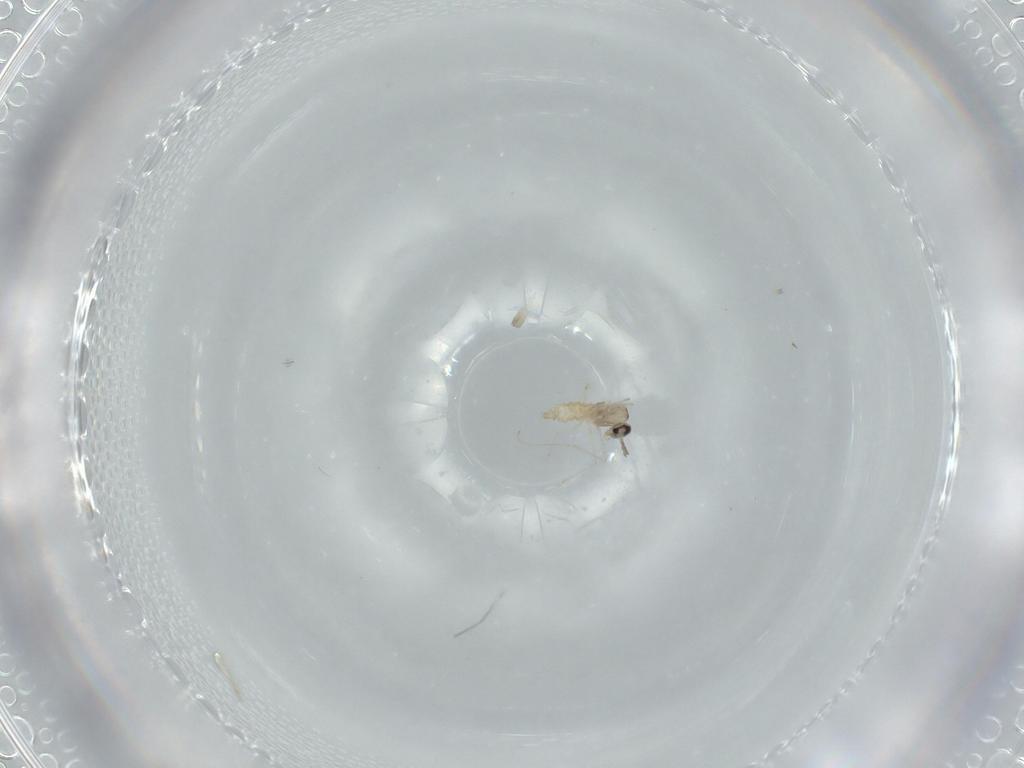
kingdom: Animalia
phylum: Arthropoda
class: Insecta
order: Diptera
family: Cecidomyiidae
